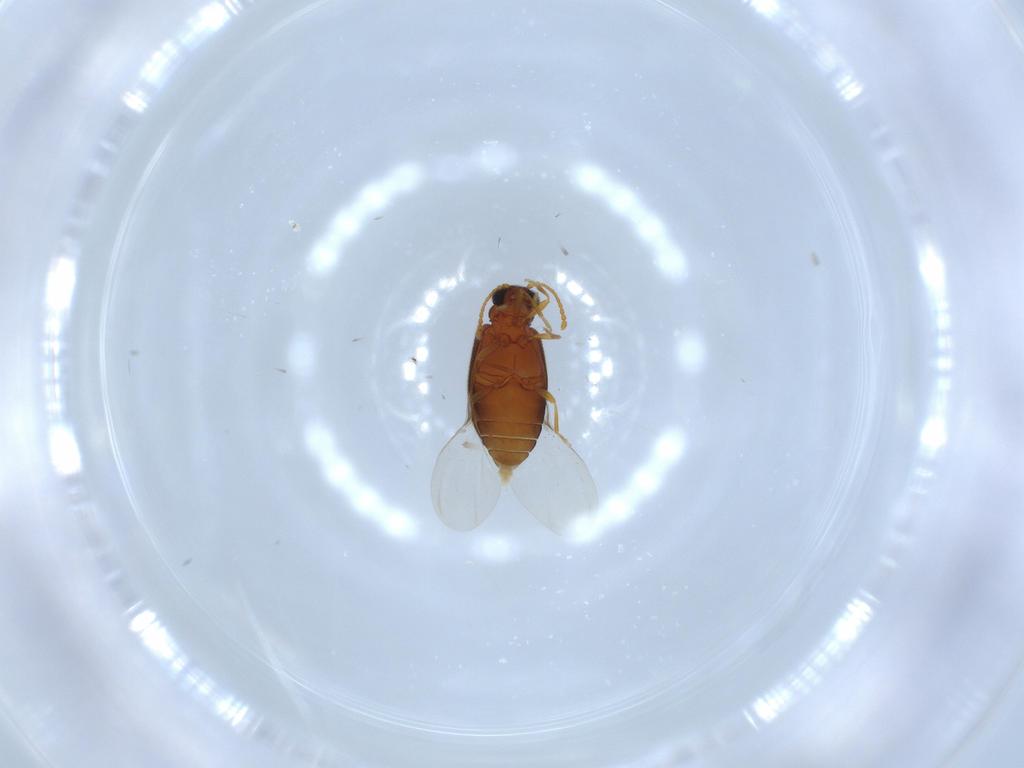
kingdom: Animalia
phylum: Arthropoda
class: Insecta
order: Coleoptera
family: Aderidae
